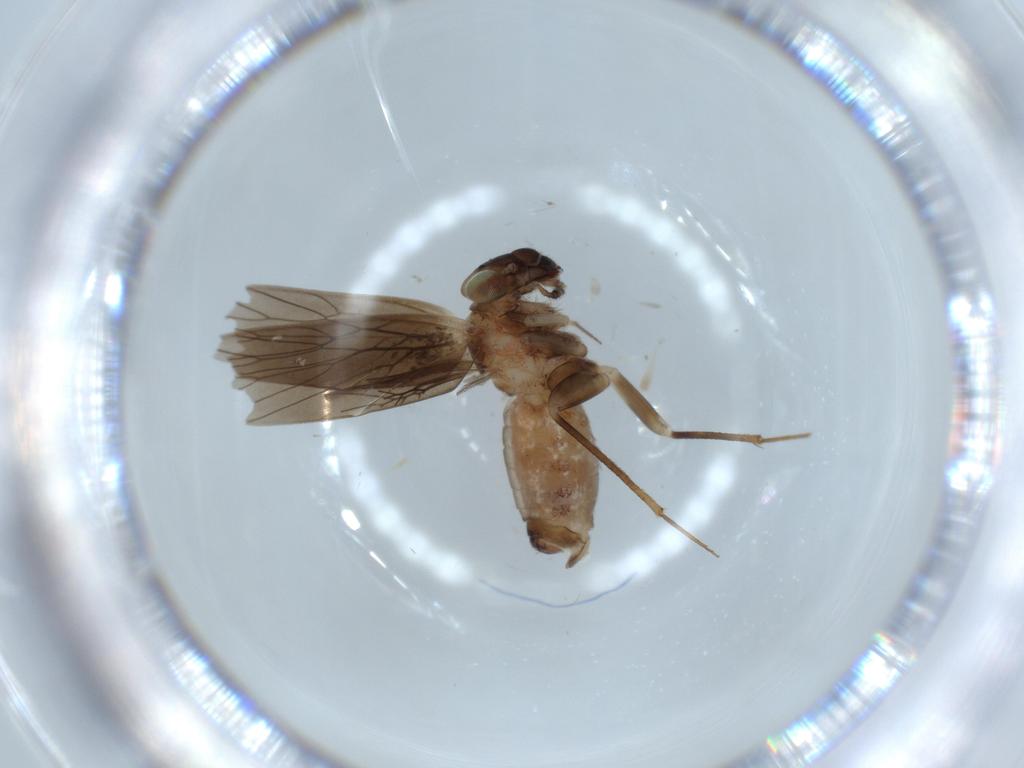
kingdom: Animalia
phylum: Arthropoda
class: Insecta
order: Psocodea
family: Lepidopsocidae
